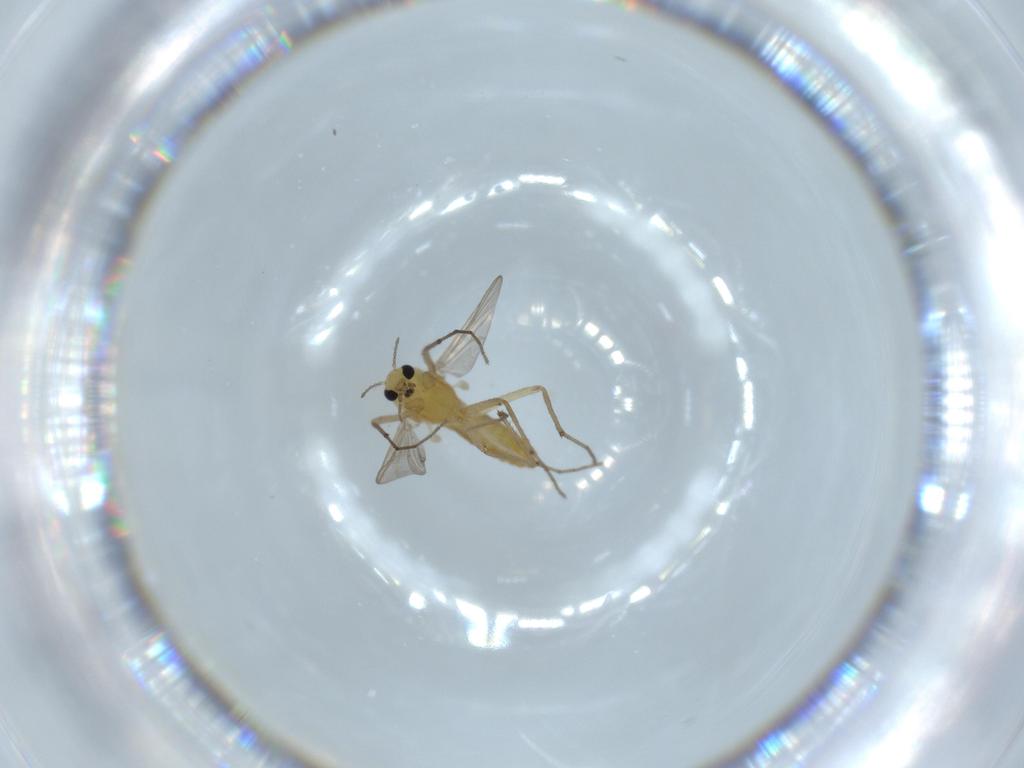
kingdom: Animalia
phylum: Arthropoda
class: Insecta
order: Diptera
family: Chironomidae
